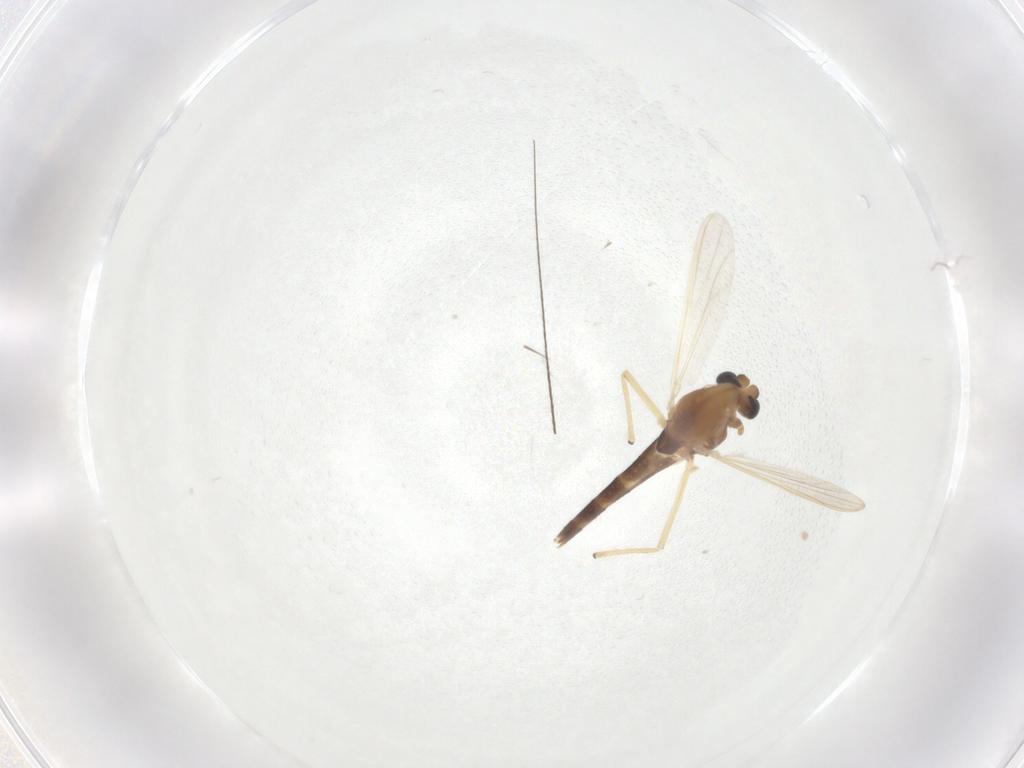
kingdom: Animalia
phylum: Arthropoda
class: Insecta
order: Diptera
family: Chironomidae
